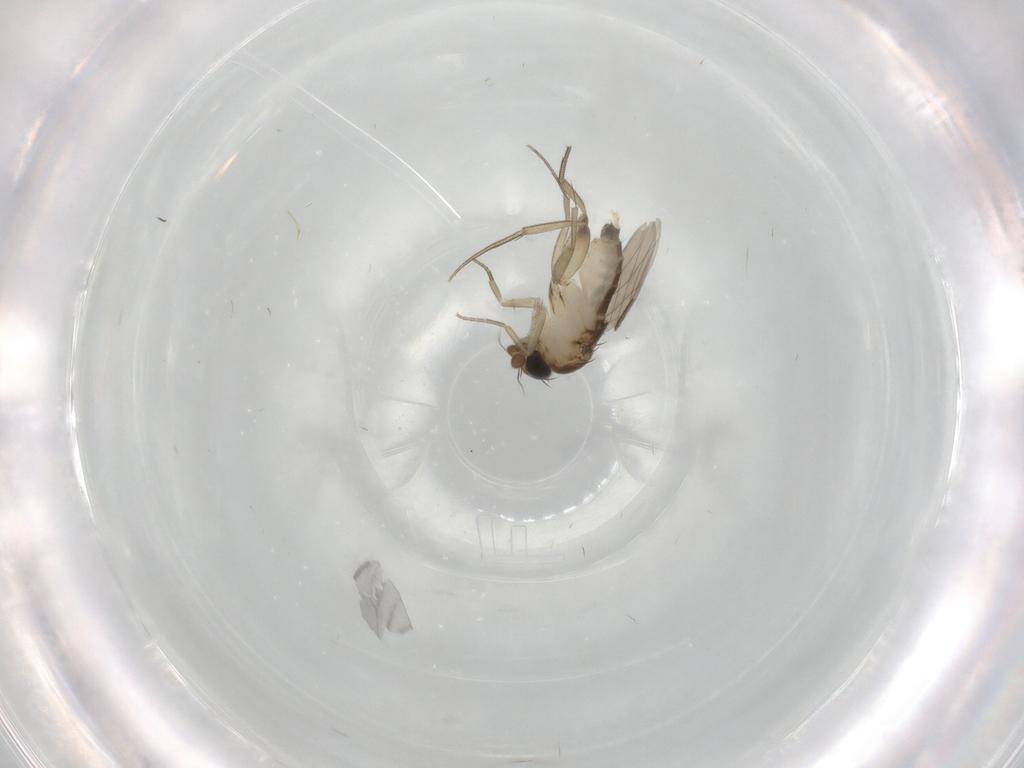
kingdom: Animalia
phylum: Arthropoda
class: Insecta
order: Diptera
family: Phoridae
